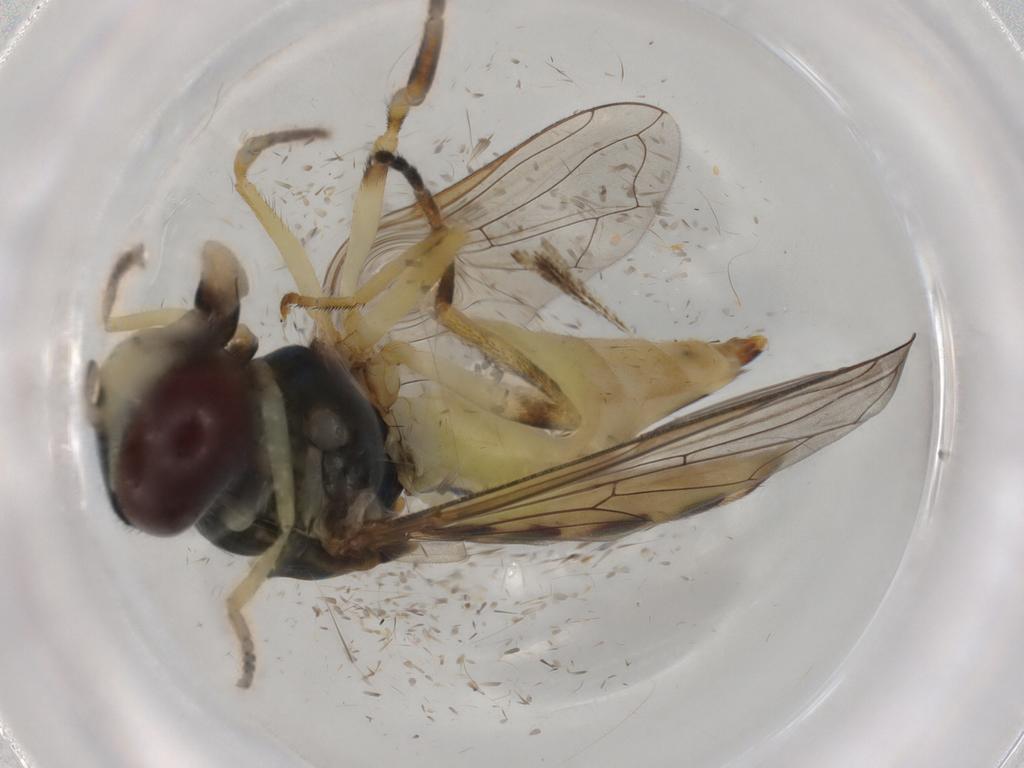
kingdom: Animalia
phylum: Arthropoda
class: Insecta
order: Diptera
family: Syrphidae
